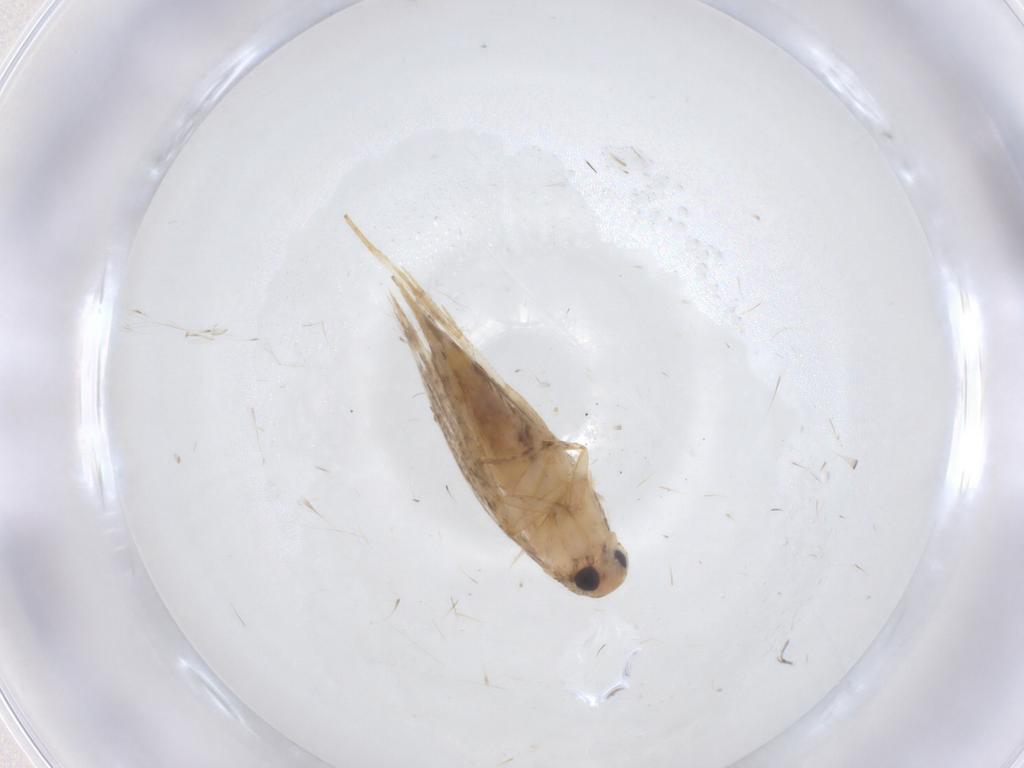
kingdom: Animalia
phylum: Arthropoda
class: Insecta
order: Lepidoptera
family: Gelechiidae
